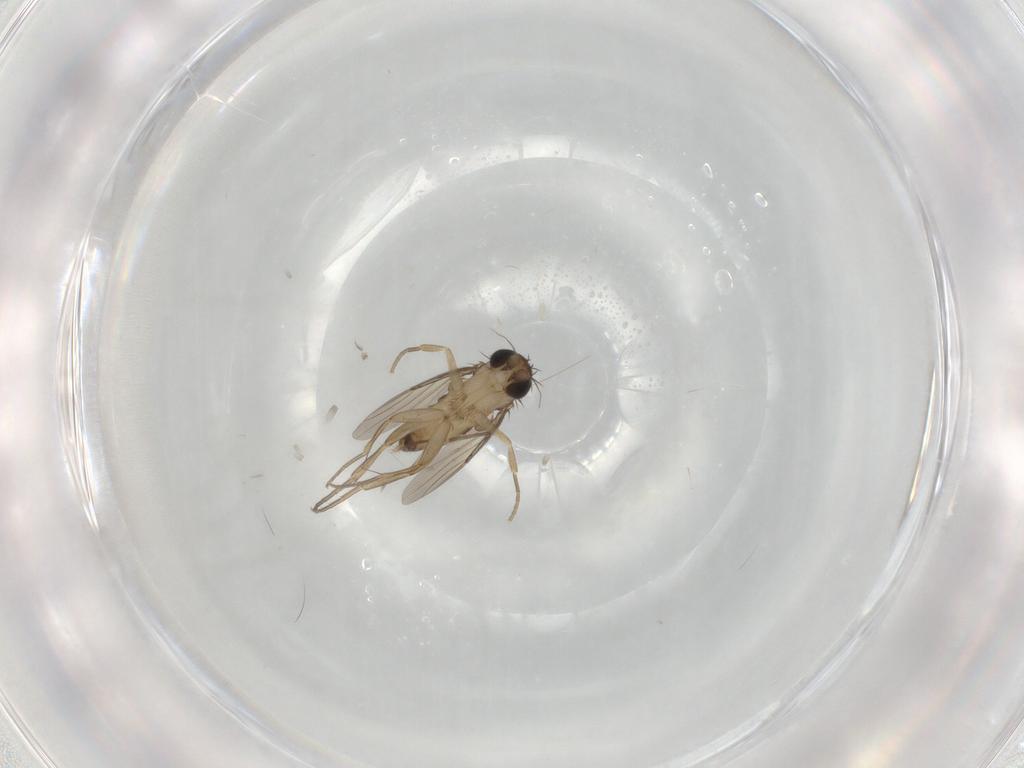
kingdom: Animalia
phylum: Arthropoda
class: Insecta
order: Diptera
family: Phoridae
